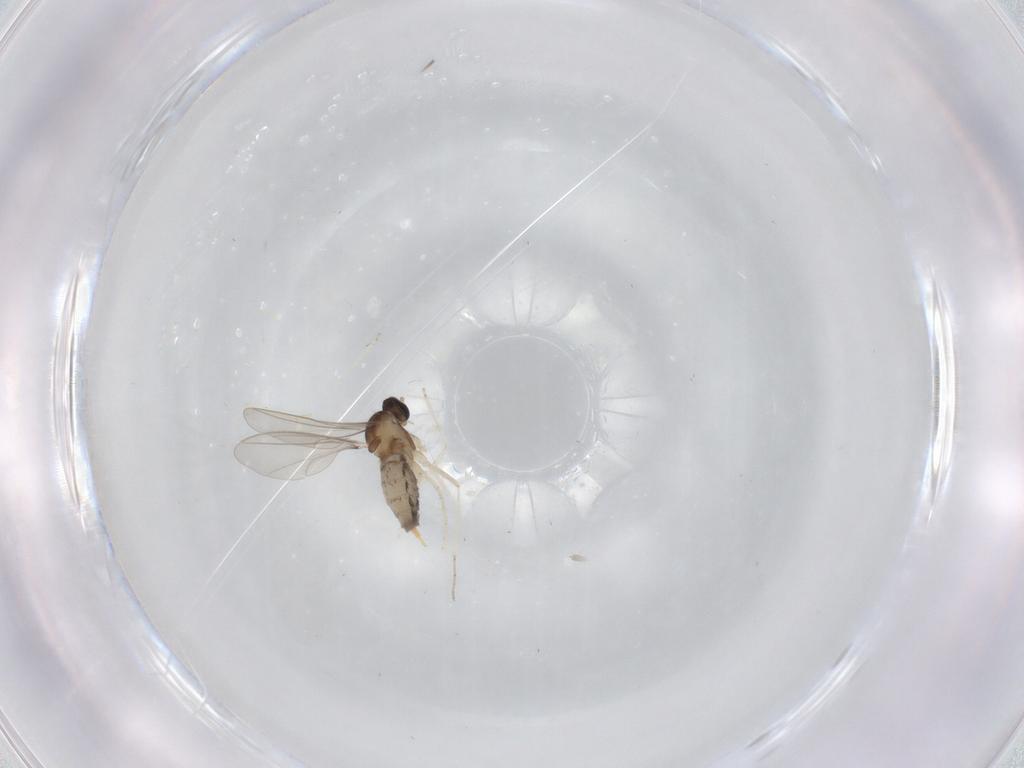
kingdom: Animalia
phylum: Arthropoda
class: Insecta
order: Diptera
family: Cecidomyiidae
